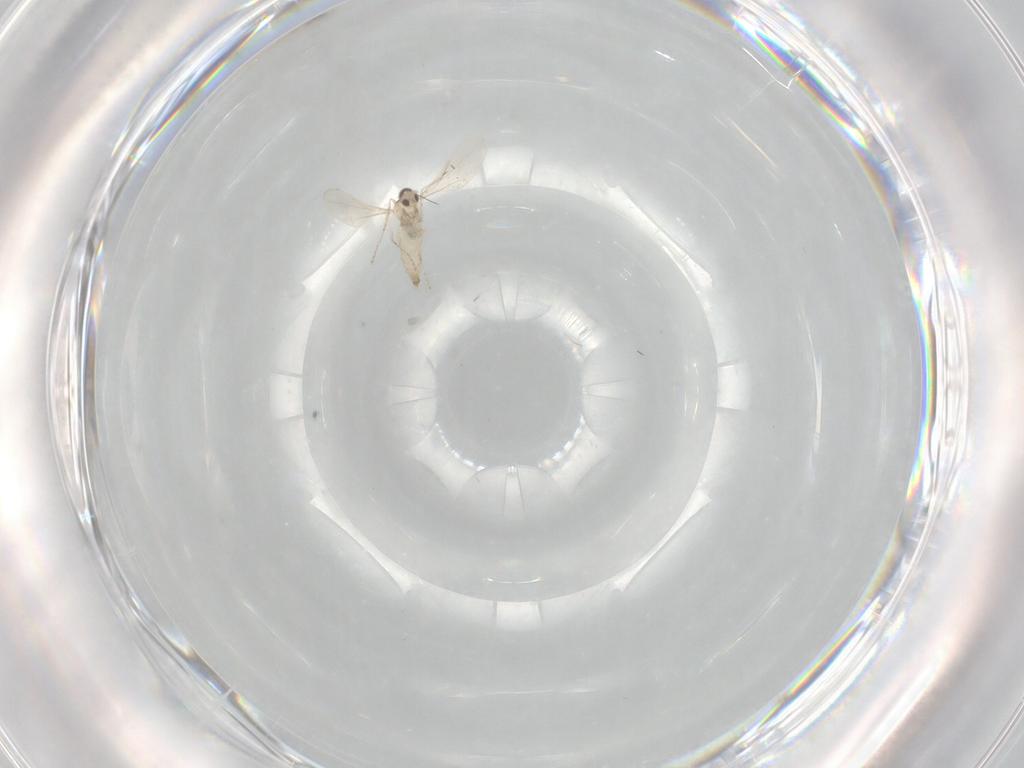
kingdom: Animalia
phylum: Arthropoda
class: Insecta
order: Diptera
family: Cecidomyiidae
